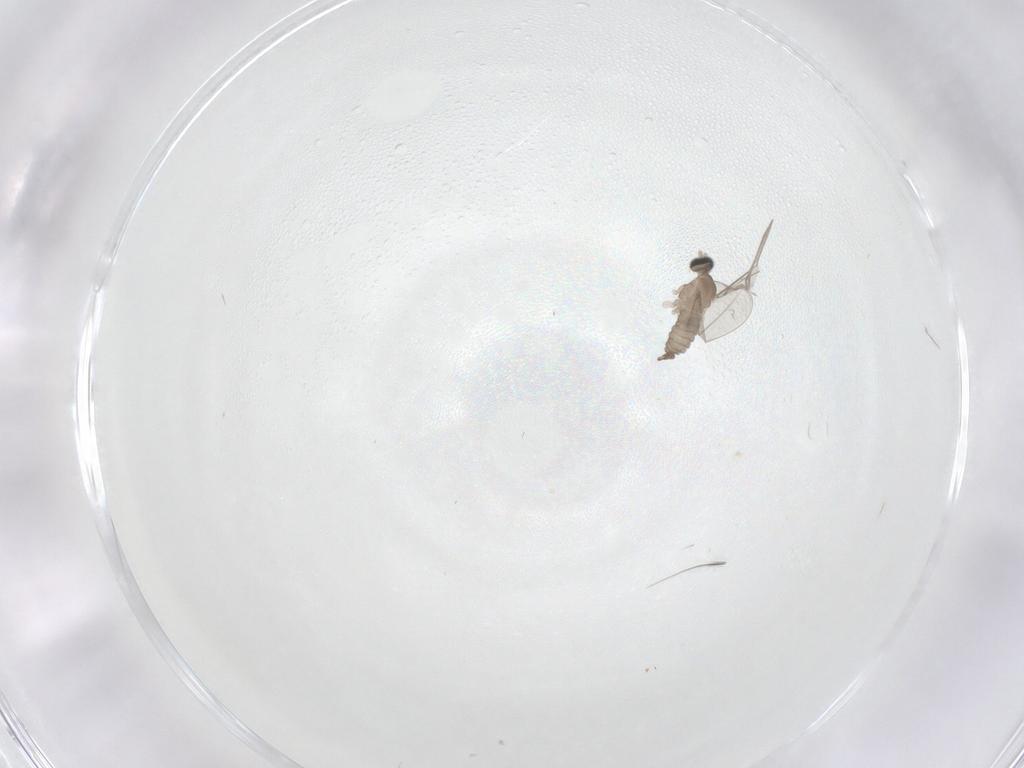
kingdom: Animalia
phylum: Arthropoda
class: Insecta
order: Diptera
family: Cecidomyiidae
